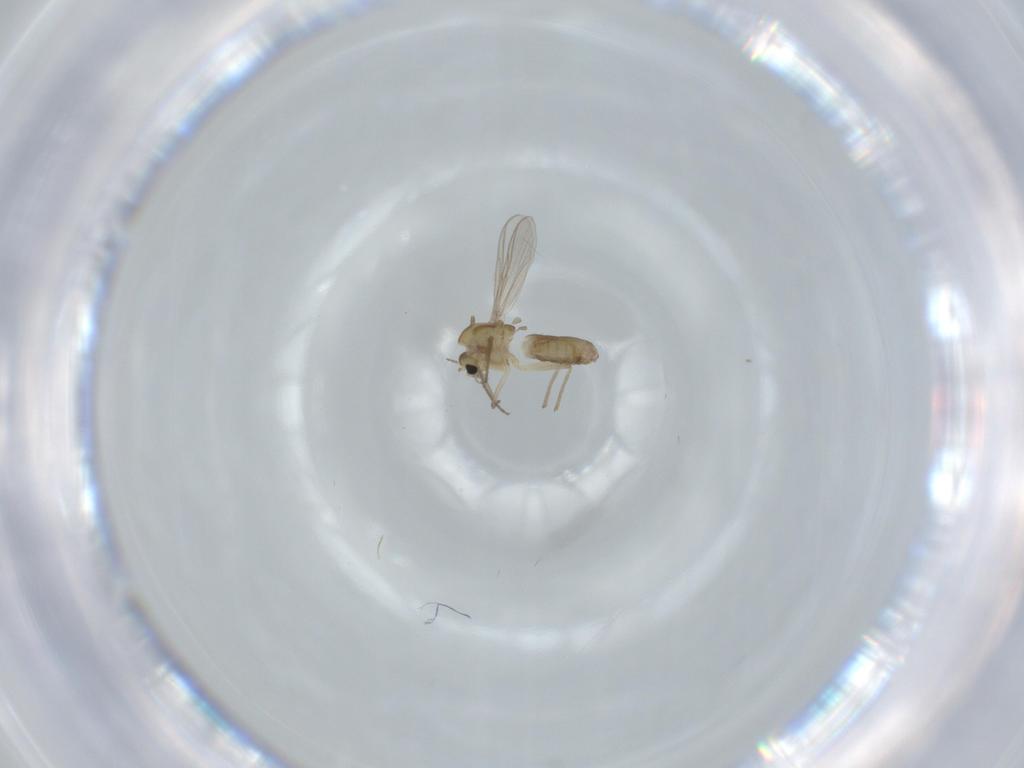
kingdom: Animalia
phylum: Arthropoda
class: Insecta
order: Diptera
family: Chironomidae
